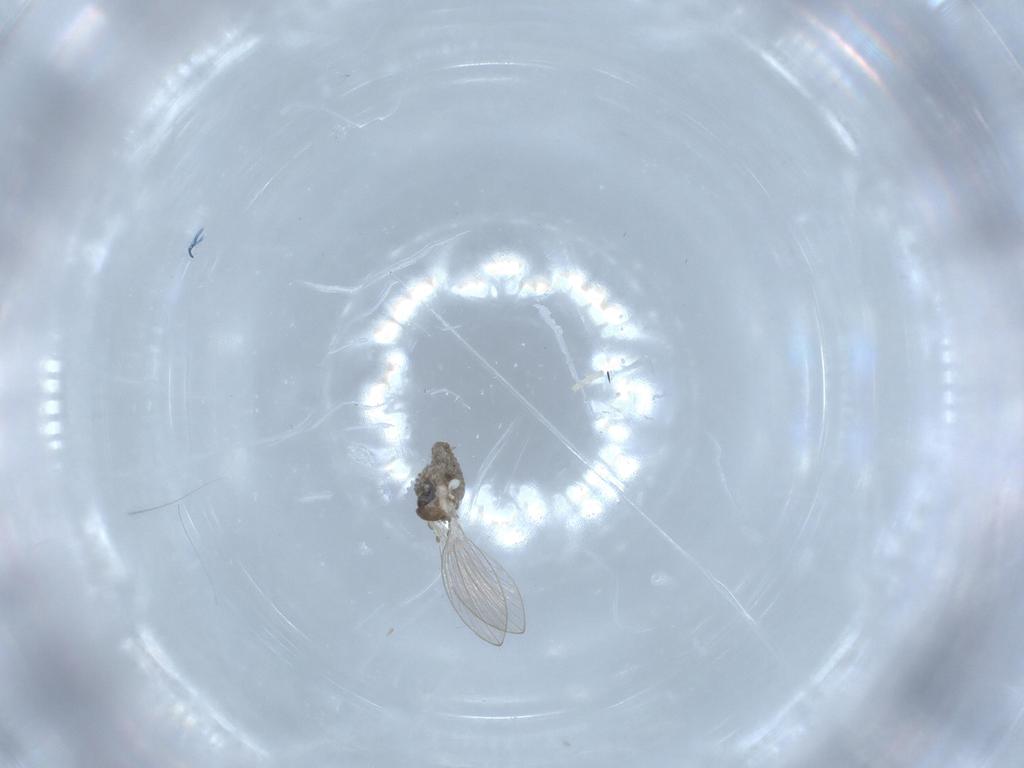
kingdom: Animalia
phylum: Arthropoda
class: Insecta
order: Diptera
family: Psychodidae
